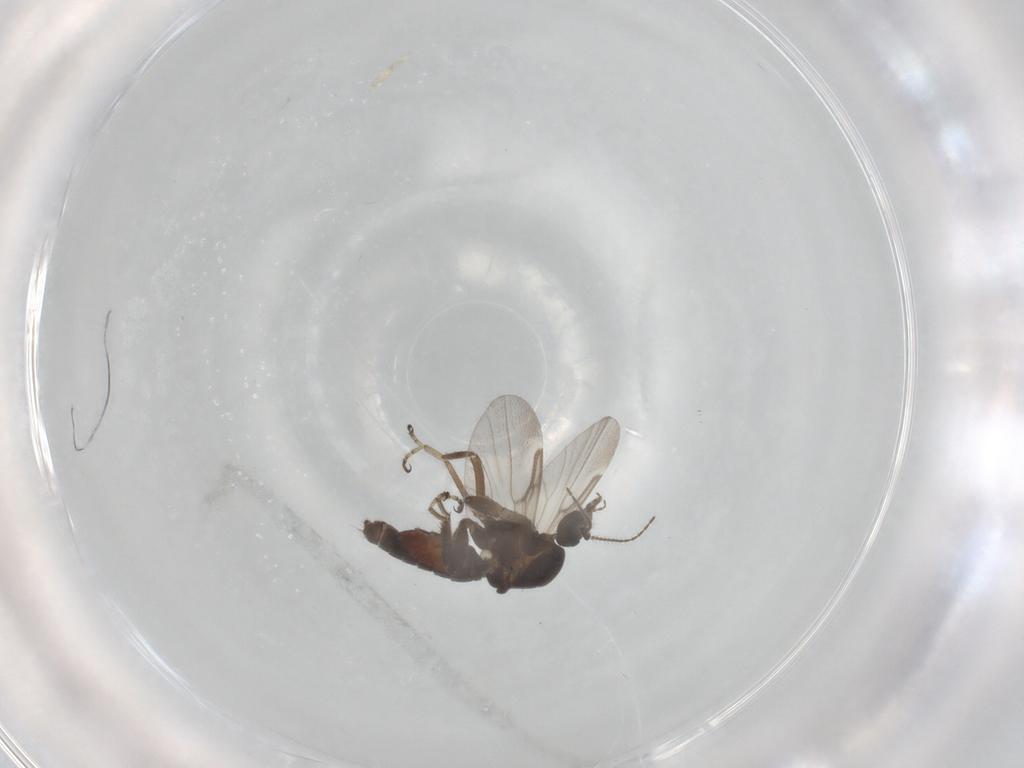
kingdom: Animalia
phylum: Arthropoda
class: Insecta
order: Diptera
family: Ceratopogonidae
